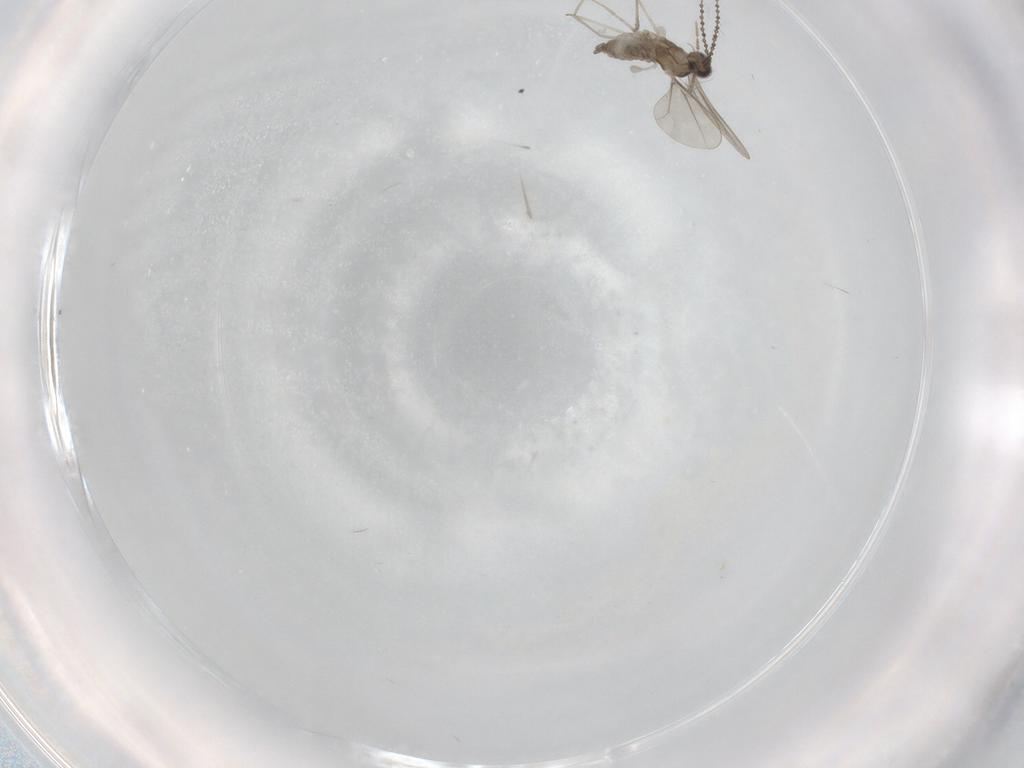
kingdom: Animalia
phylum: Arthropoda
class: Insecta
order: Diptera
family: Cecidomyiidae
